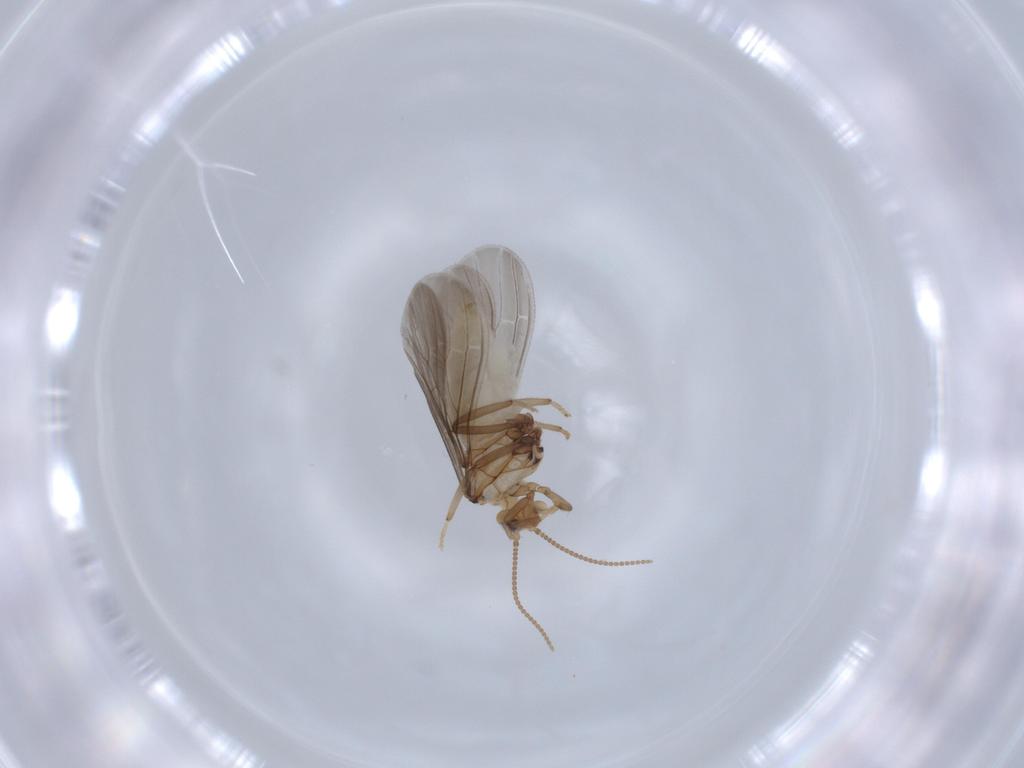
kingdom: Animalia
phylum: Arthropoda
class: Insecta
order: Neuroptera
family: Coniopterygidae
